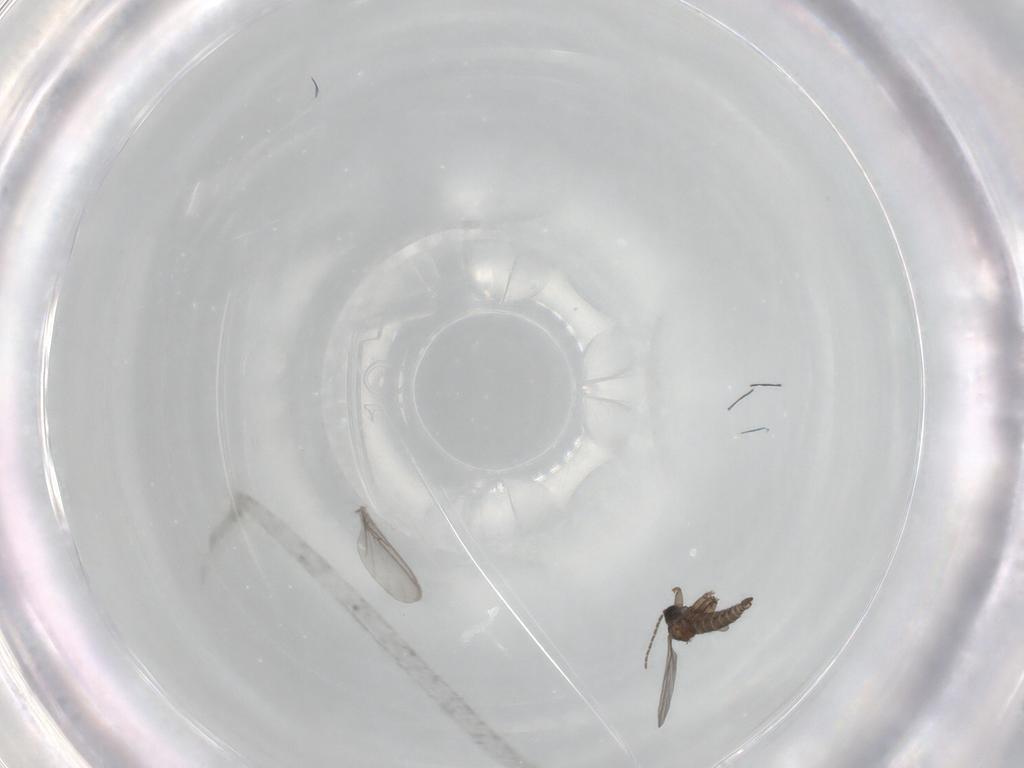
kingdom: Animalia
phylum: Arthropoda
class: Insecta
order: Diptera
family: Sciaridae
